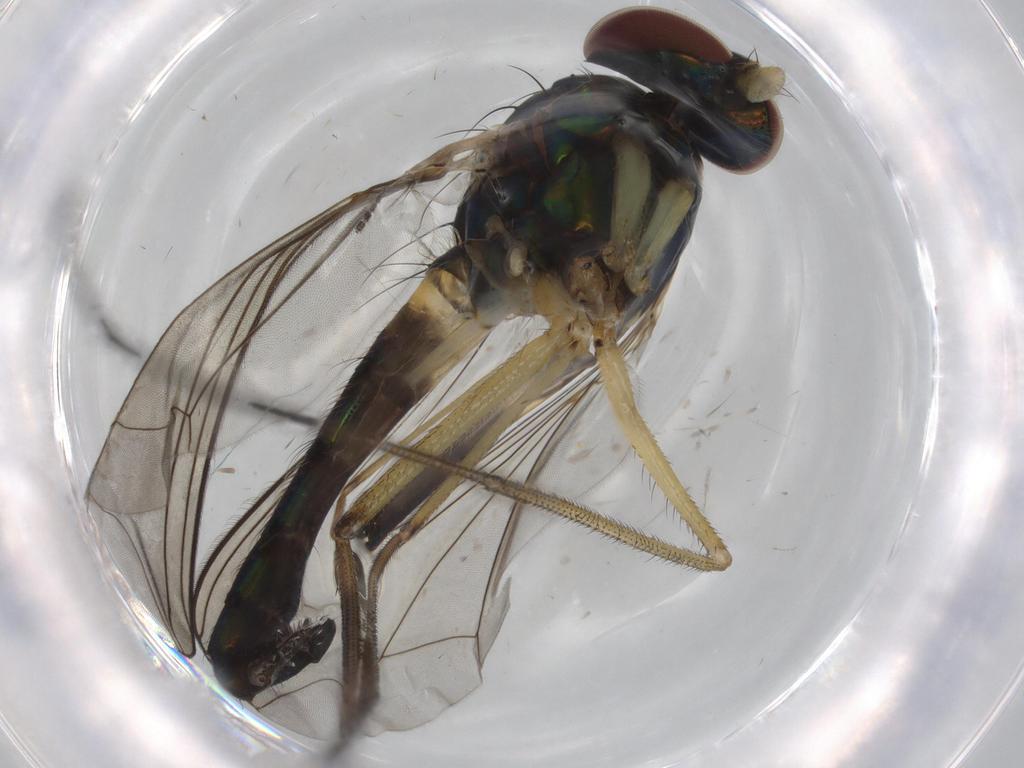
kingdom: Animalia
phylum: Arthropoda
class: Insecta
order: Diptera
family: Dolichopodidae
